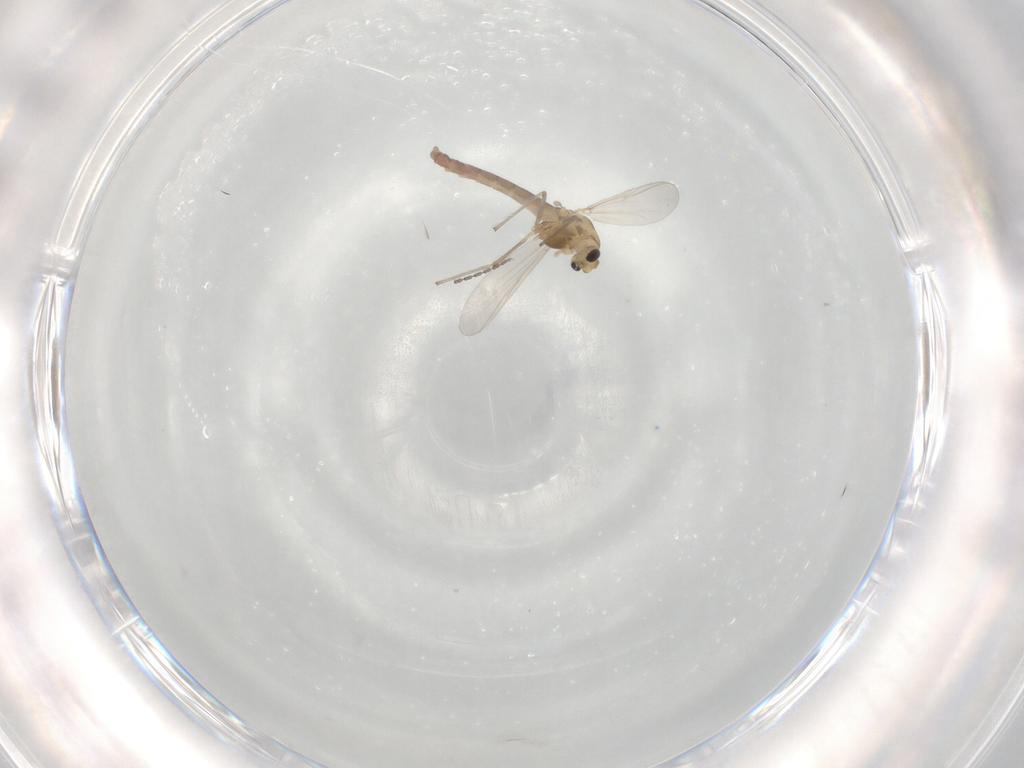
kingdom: Animalia
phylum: Arthropoda
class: Insecta
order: Diptera
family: Cecidomyiidae
